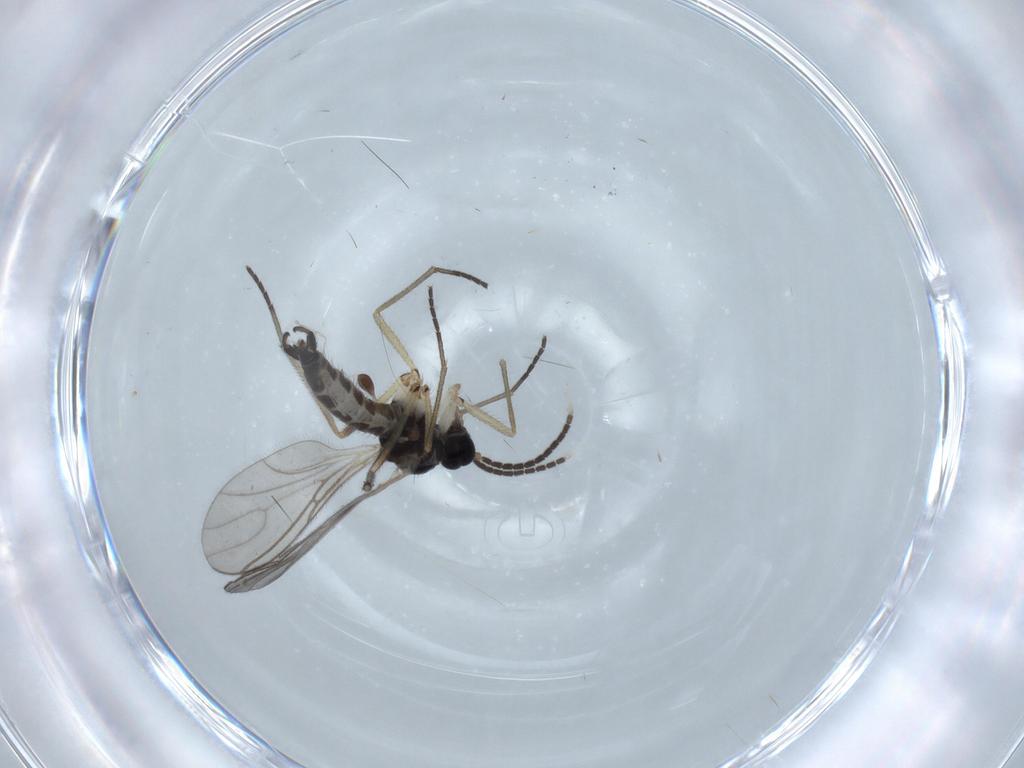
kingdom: Animalia
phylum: Arthropoda
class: Insecta
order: Diptera
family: Sciaridae
